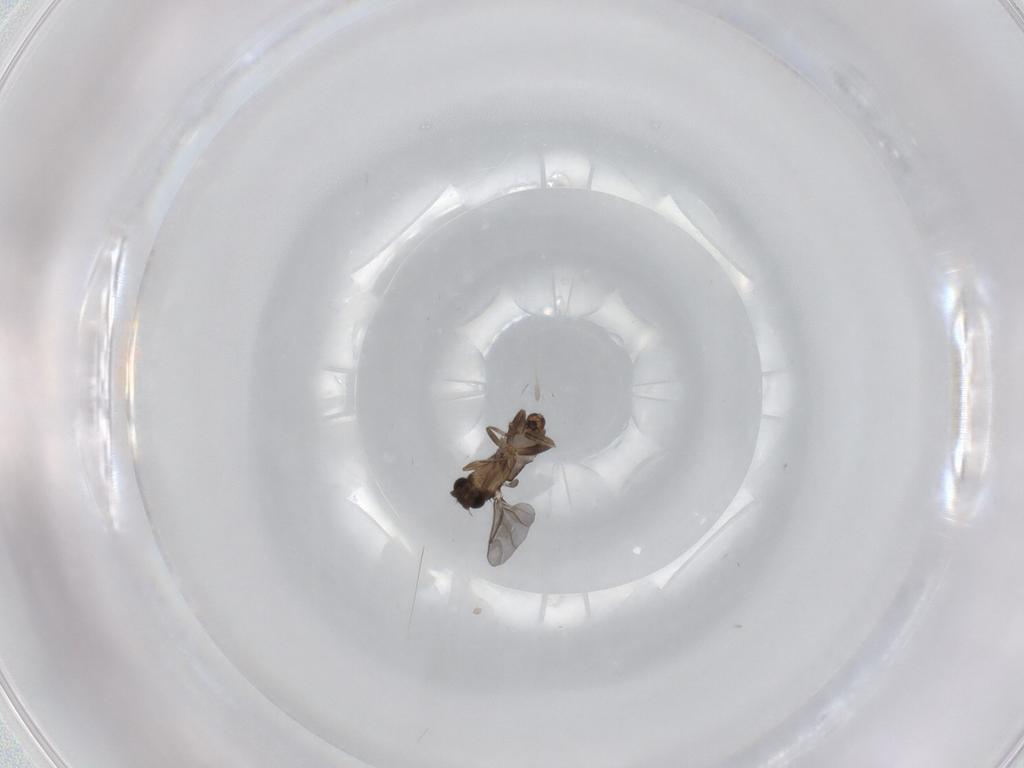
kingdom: Animalia
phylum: Arthropoda
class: Insecta
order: Diptera
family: Phoridae
